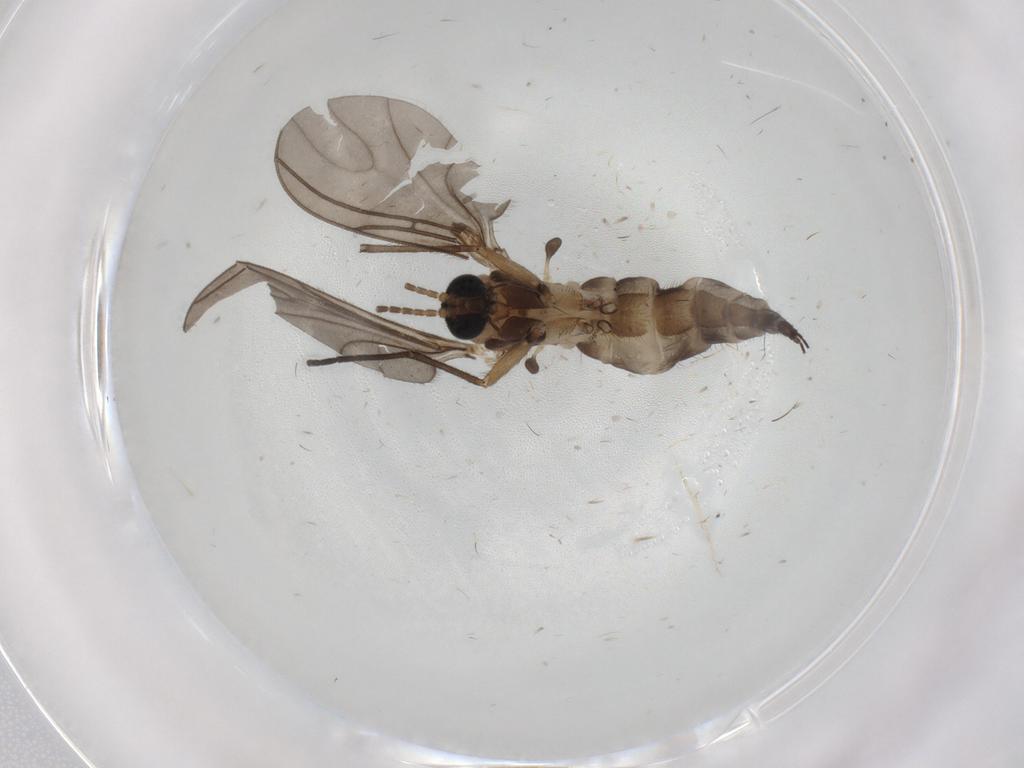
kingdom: Animalia
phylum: Arthropoda
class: Insecta
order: Diptera
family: Sciaridae
